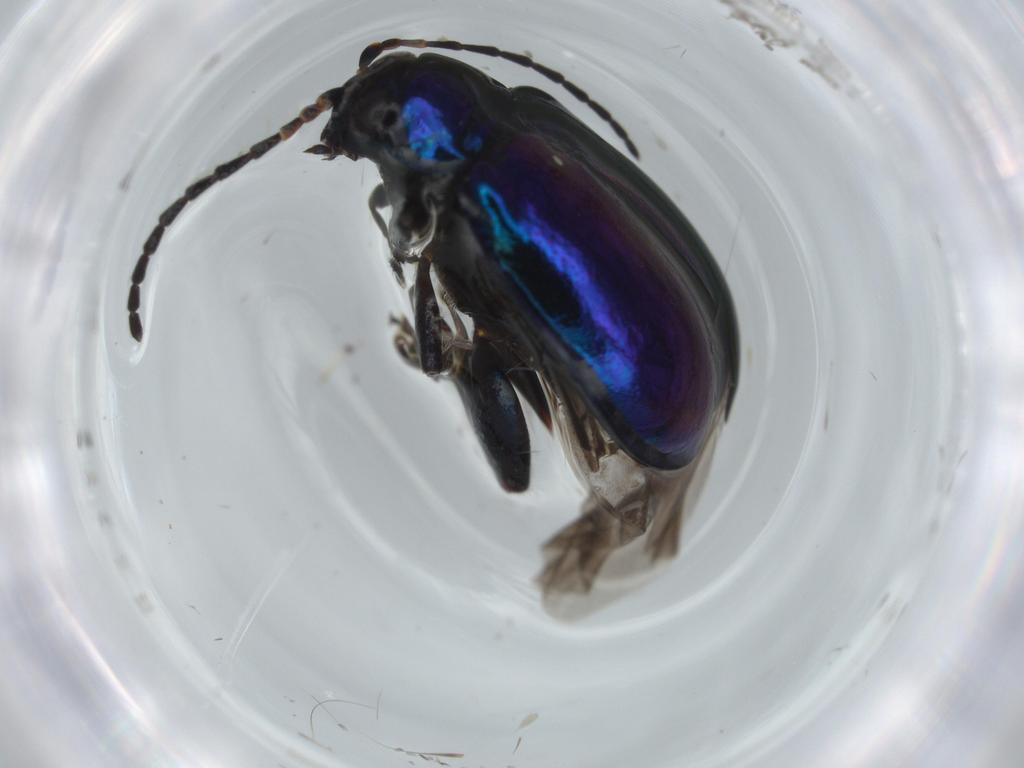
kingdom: Animalia
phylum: Arthropoda
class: Insecta
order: Coleoptera
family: Chrysomelidae
